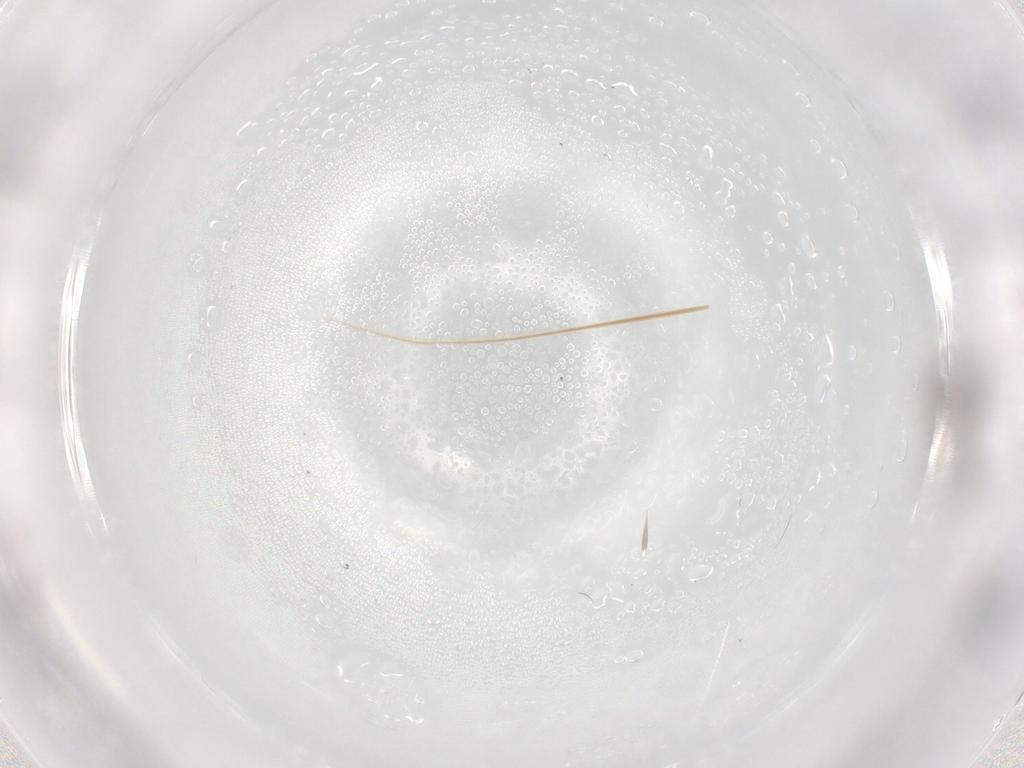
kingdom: Animalia
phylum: Arthropoda
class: Insecta
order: Diptera
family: Sciaridae
